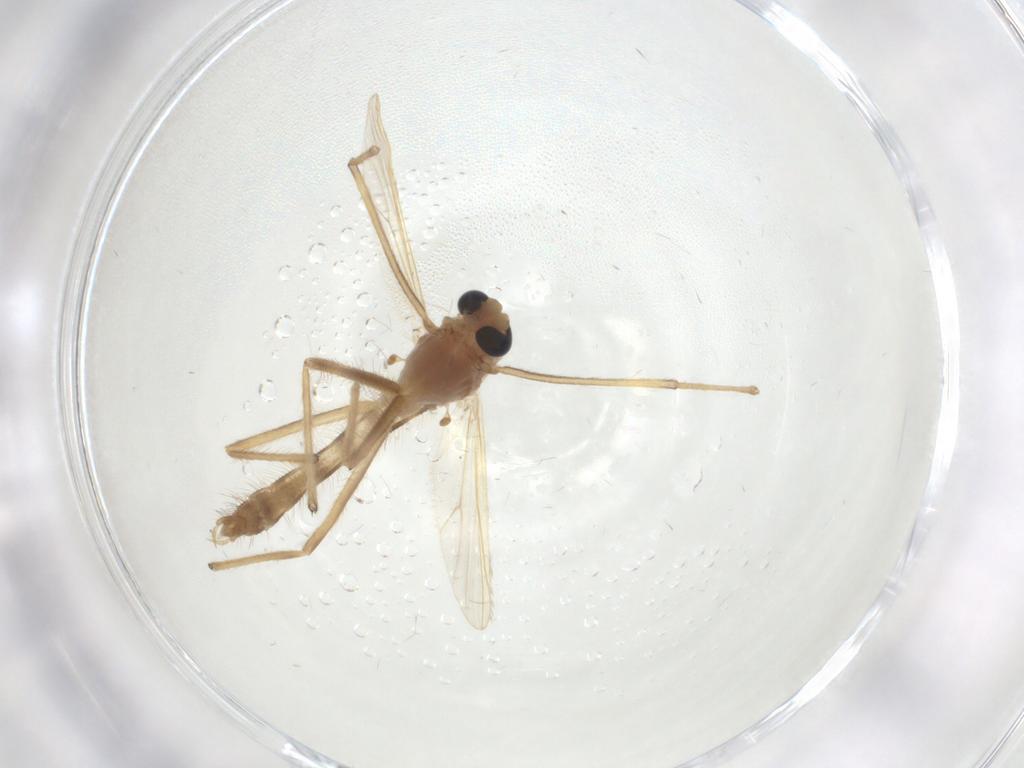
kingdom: Animalia
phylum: Arthropoda
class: Insecta
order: Diptera
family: Chironomidae
